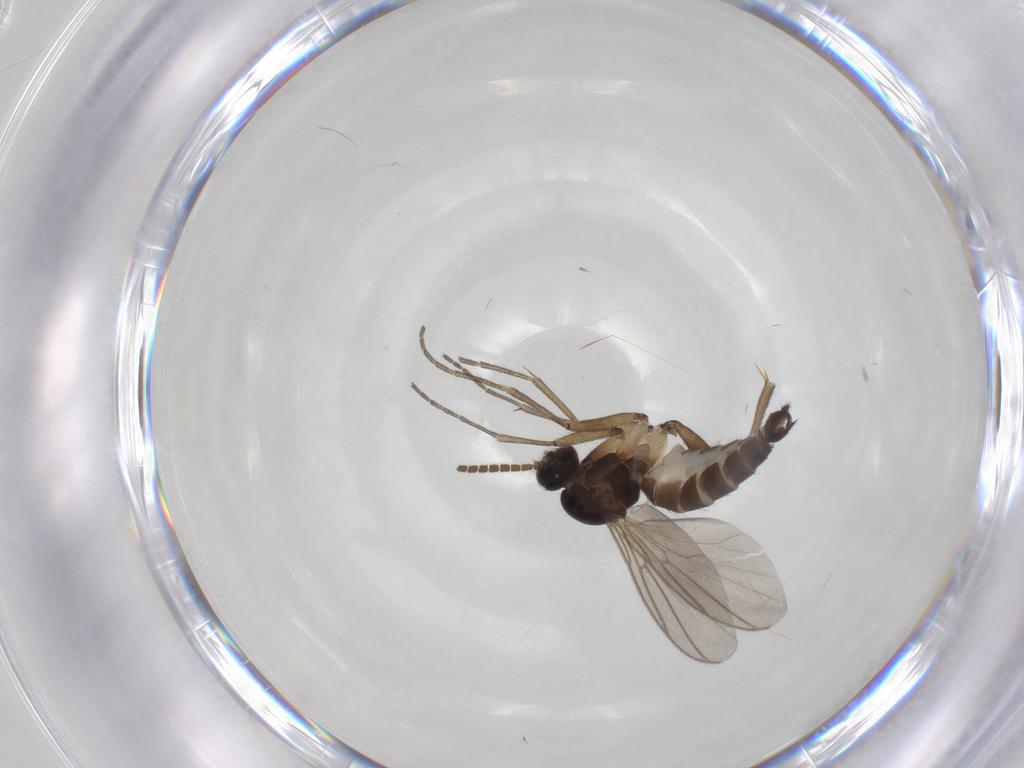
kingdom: Animalia
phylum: Arthropoda
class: Insecta
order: Diptera
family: Mycetophilidae
